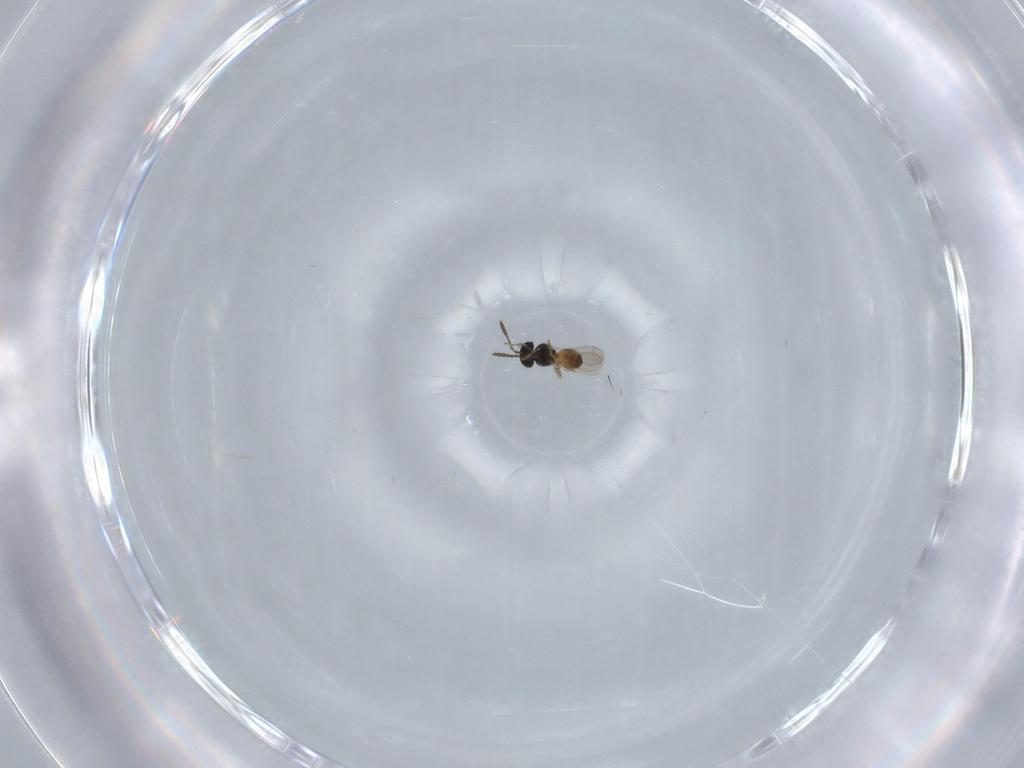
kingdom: Animalia
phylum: Arthropoda
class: Insecta
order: Hymenoptera
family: Scelionidae
